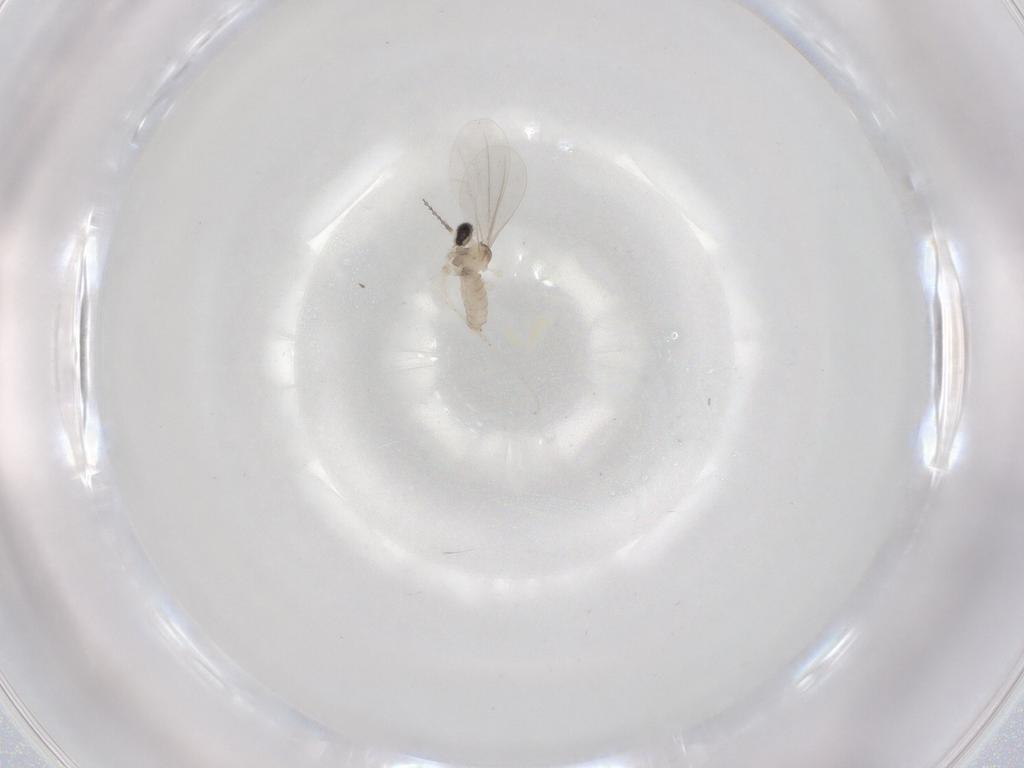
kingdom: Animalia
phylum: Arthropoda
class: Insecta
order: Diptera
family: Cecidomyiidae
